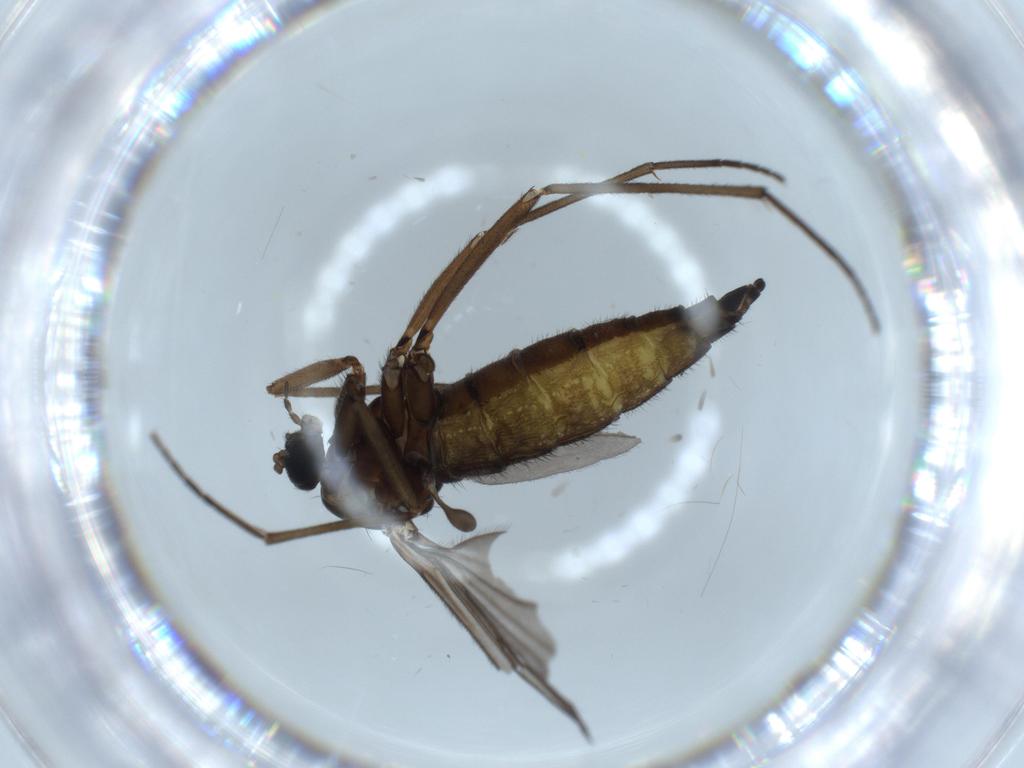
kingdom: Animalia
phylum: Arthropoda
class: Insecta
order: Diptera
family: Sciaridae
